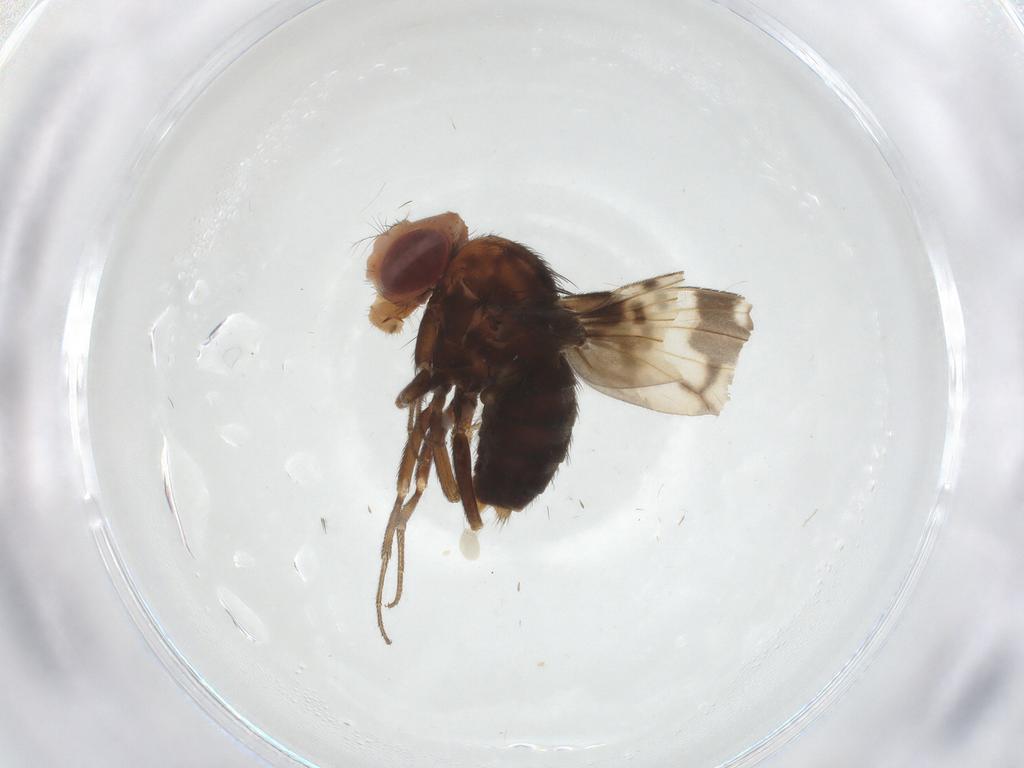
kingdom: Animalia
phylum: Arthropoda
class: Insecta
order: Diptera
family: Drosophilidae
